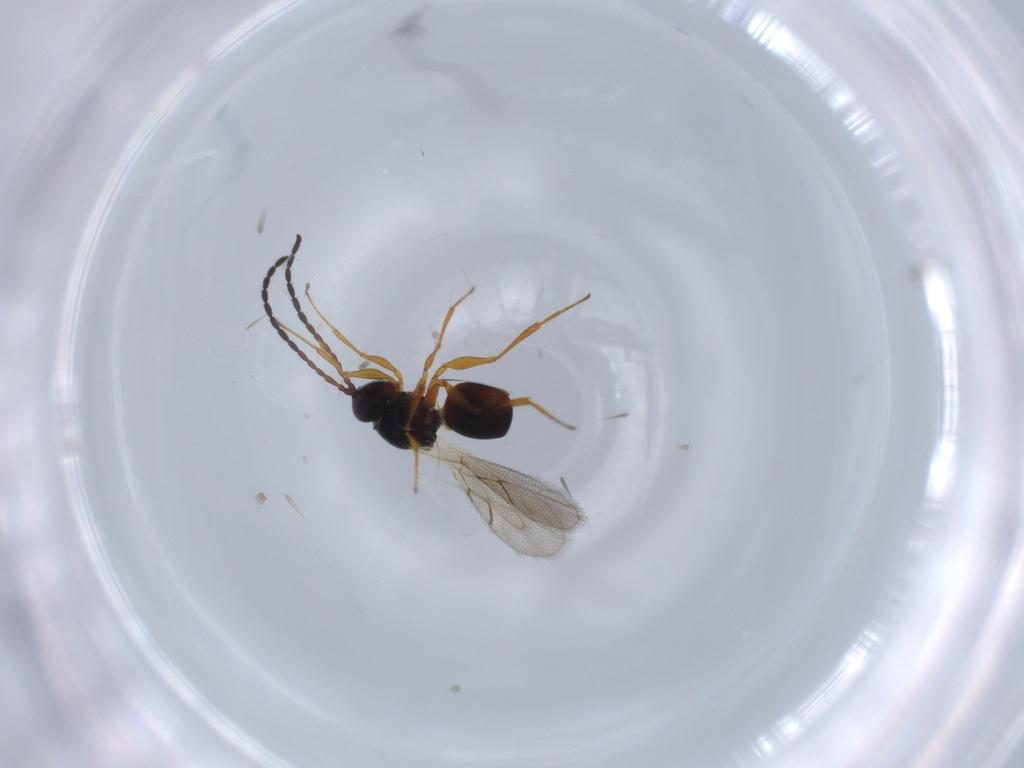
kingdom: Animalia
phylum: Arthropoda
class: Insecta
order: Hymenoptera
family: Figitidae
